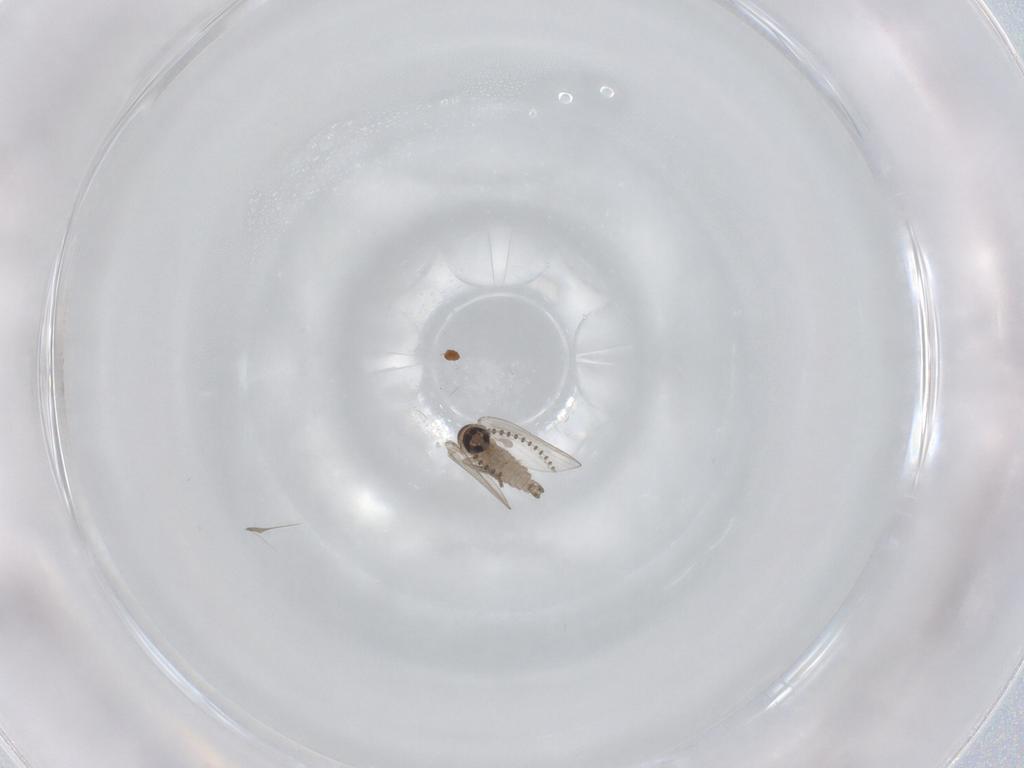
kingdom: Animalia
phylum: Arthropoda
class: Insecta
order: Diptera
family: Psychodidae
